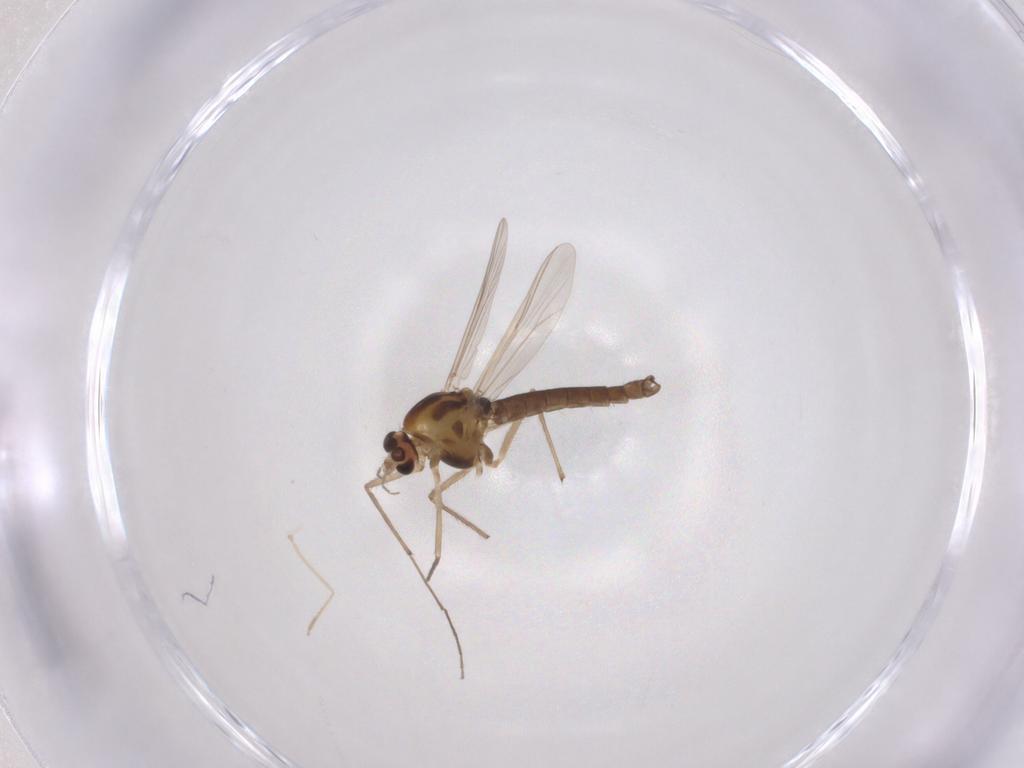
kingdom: Animalia
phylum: Arthropoda
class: Insecta
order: Diptera
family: Chironomidae
